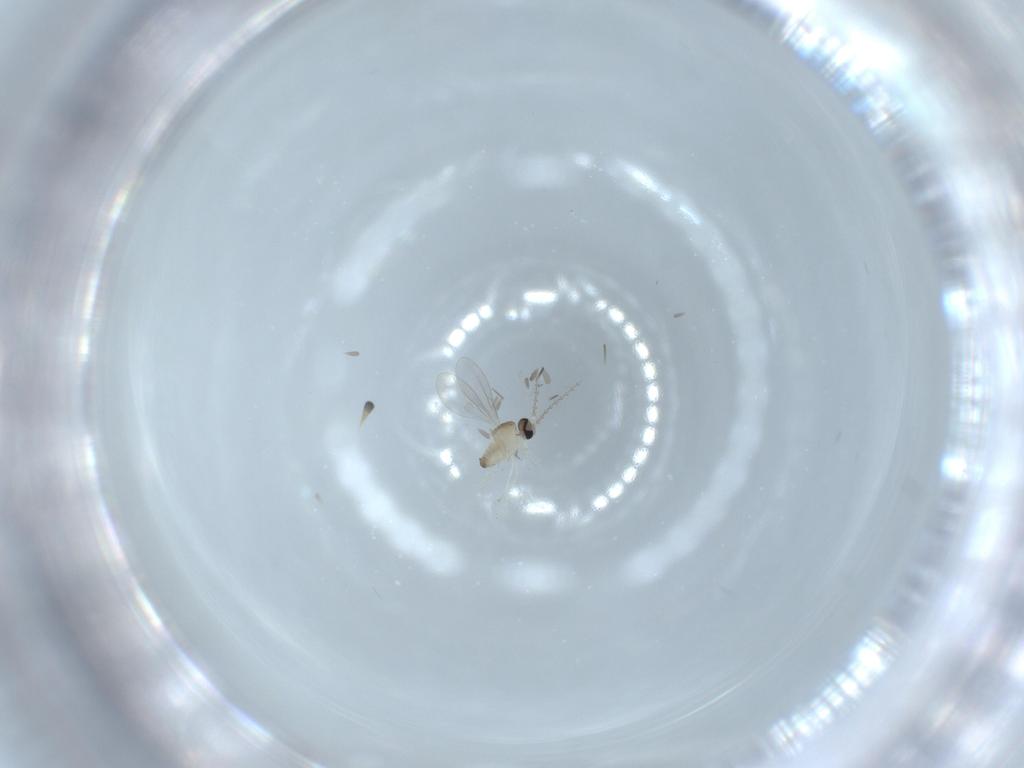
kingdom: Animalia
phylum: Arthropoda
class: Insecta
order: Diptera
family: Cecidomyiidae
